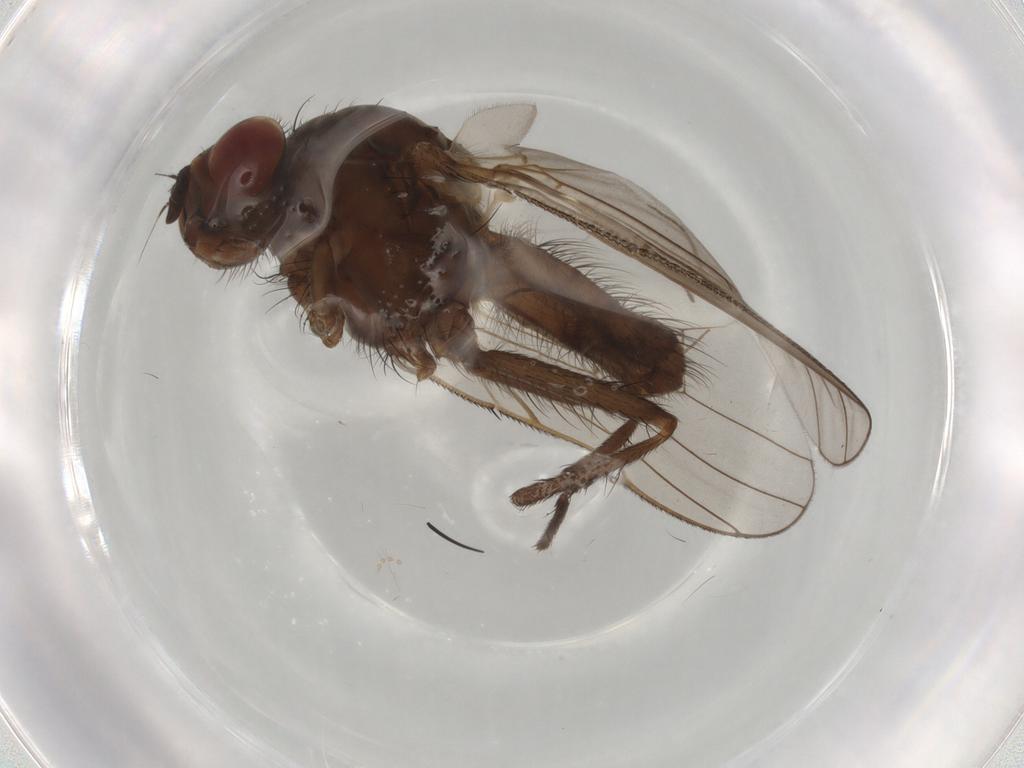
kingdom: Animalia
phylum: Arthropoda
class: Insecta
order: Diptera
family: Anthomyiidae
